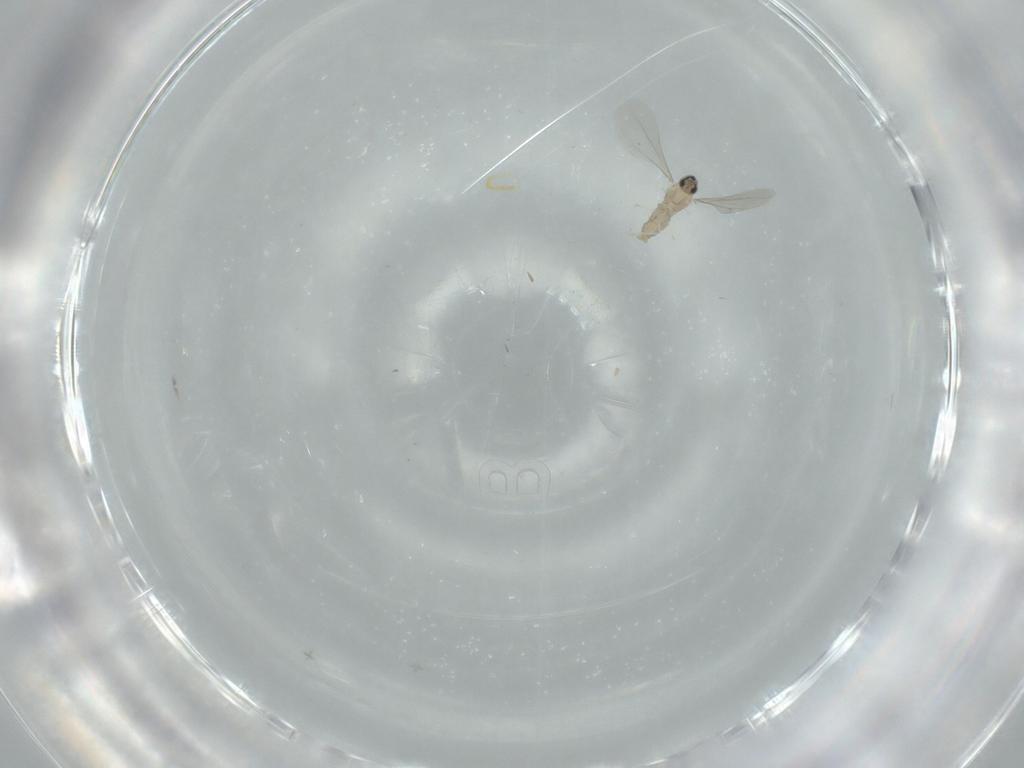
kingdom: Animalia
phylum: Arthropoda
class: Insecta
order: Diptera
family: Cecidomyiidae
